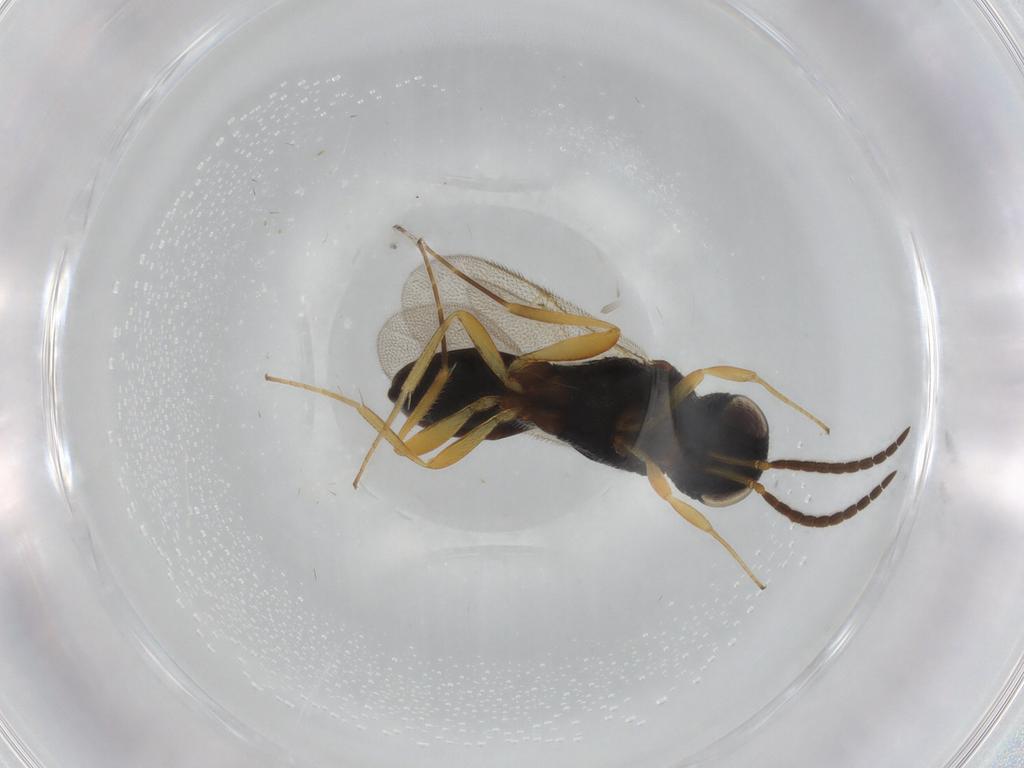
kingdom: Animalia
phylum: Arthropoda
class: Insecta
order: Hymenoptera
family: Scelionidae
